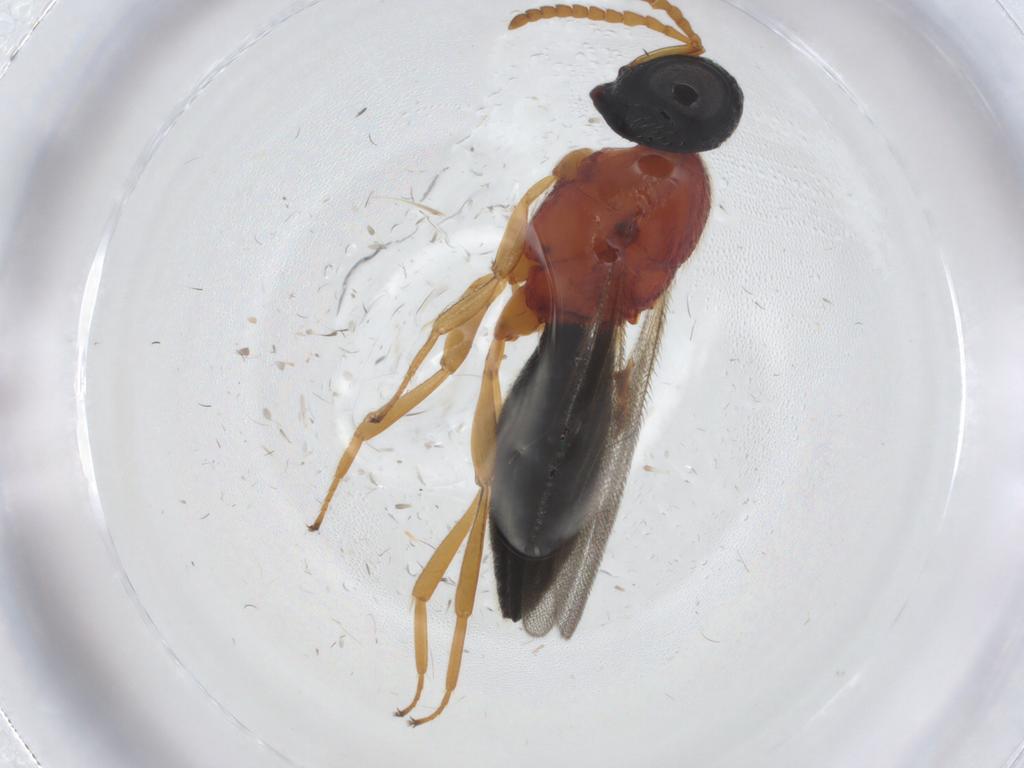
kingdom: Animalia
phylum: Arthropoda
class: Insecta
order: Hymenoptera
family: Scelionidae
